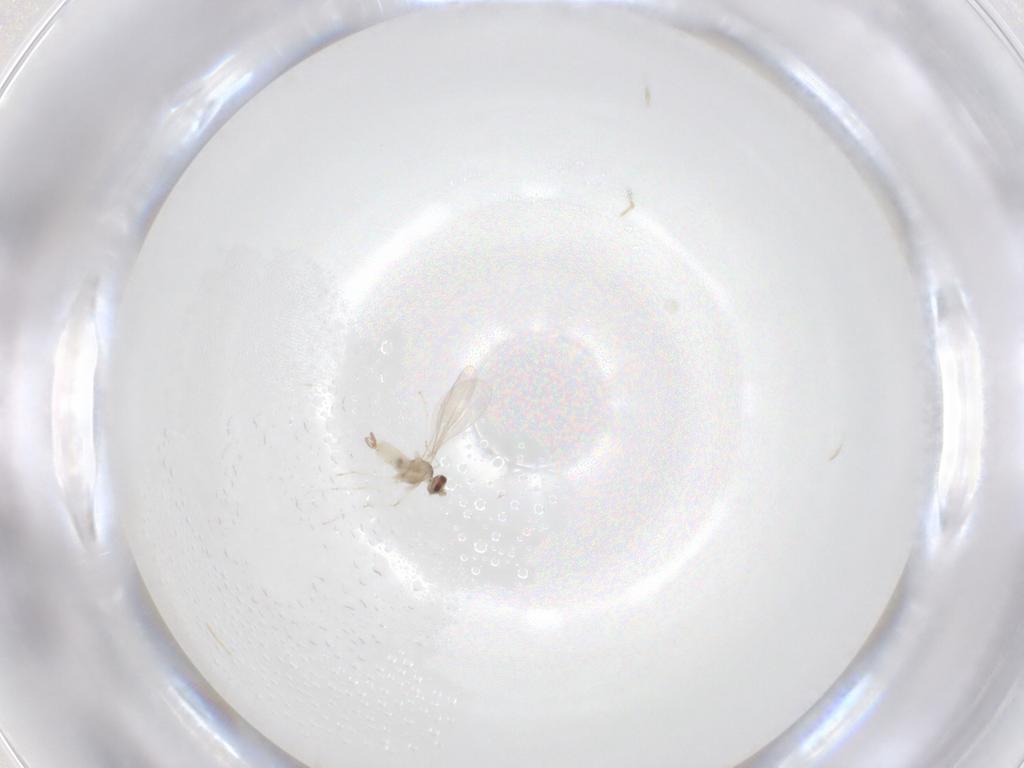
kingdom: Animalia
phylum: Arthropoda
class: Insecta
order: Diptera
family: Cecidomyiidae
